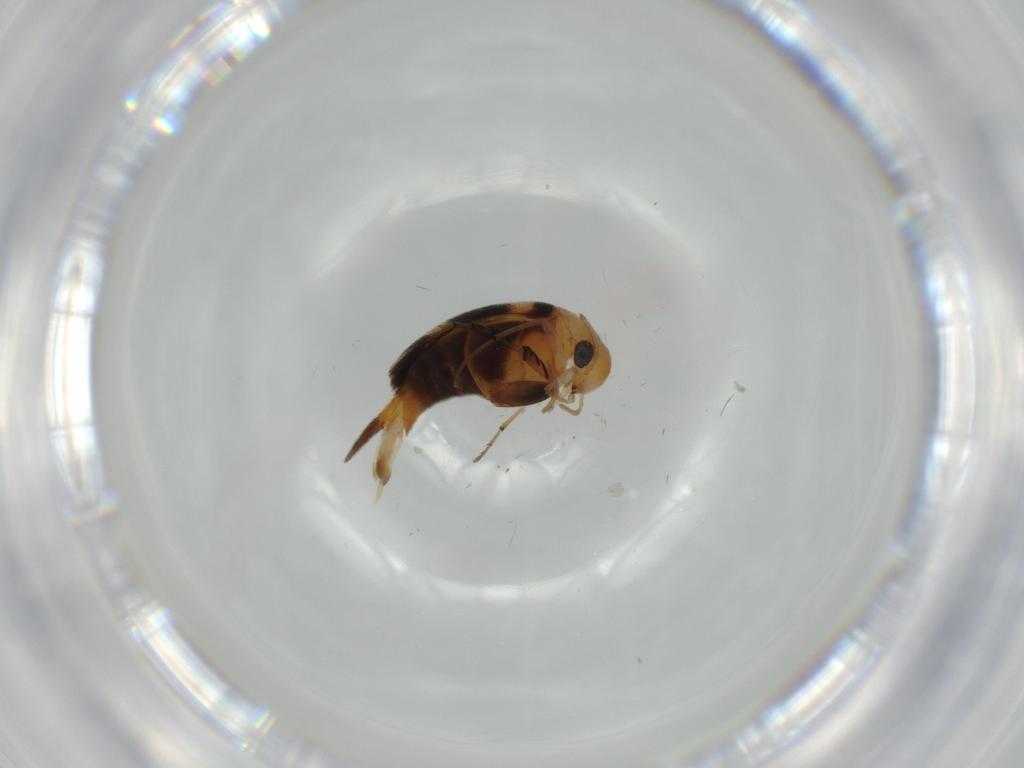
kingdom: Animalia
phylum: Arthropoda
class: Insecta
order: Coleoptera
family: Mordellidae
